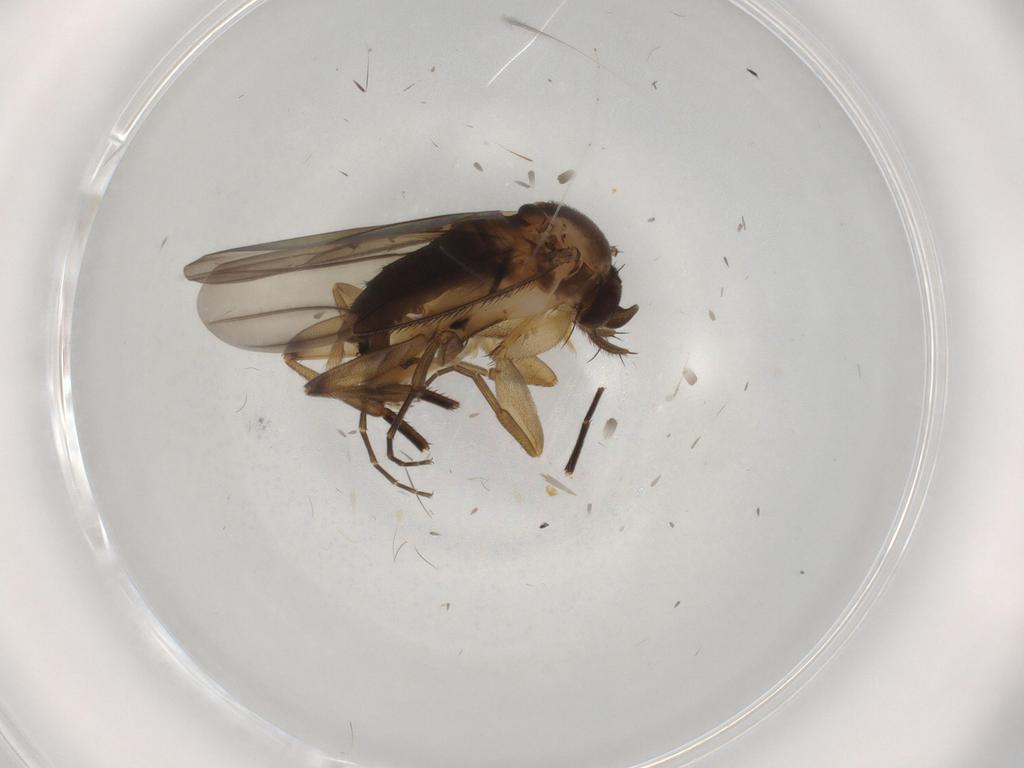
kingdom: Animalia
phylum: Arthropoda
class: Insecta
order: Diptera
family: Phoridae
